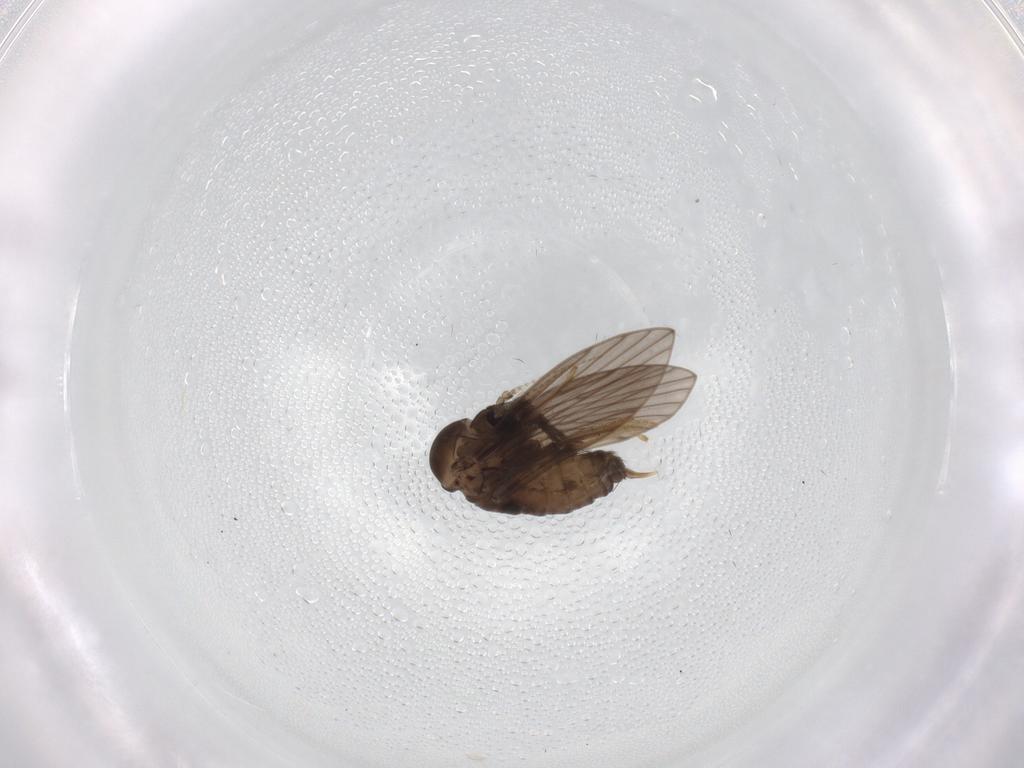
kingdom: Animalia
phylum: Arthropoda
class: Insecta
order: Diptera
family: Psychodidae
